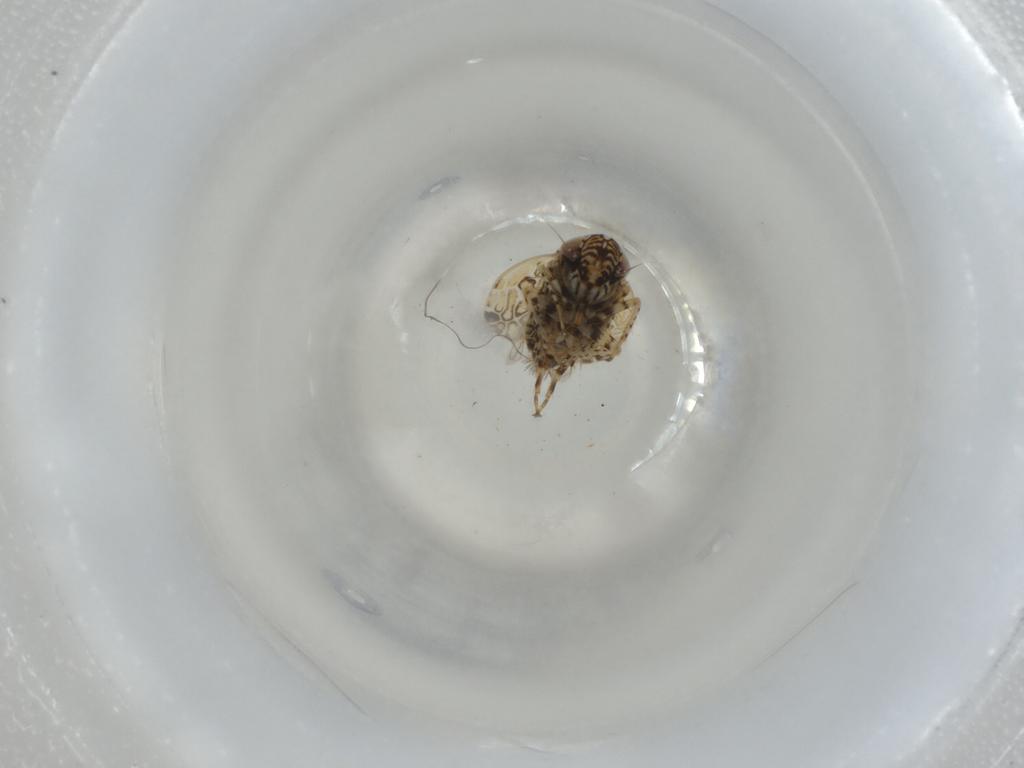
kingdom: Animalia
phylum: Arthropoda
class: Insecta
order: Hemiptera
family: Cicadellidae
